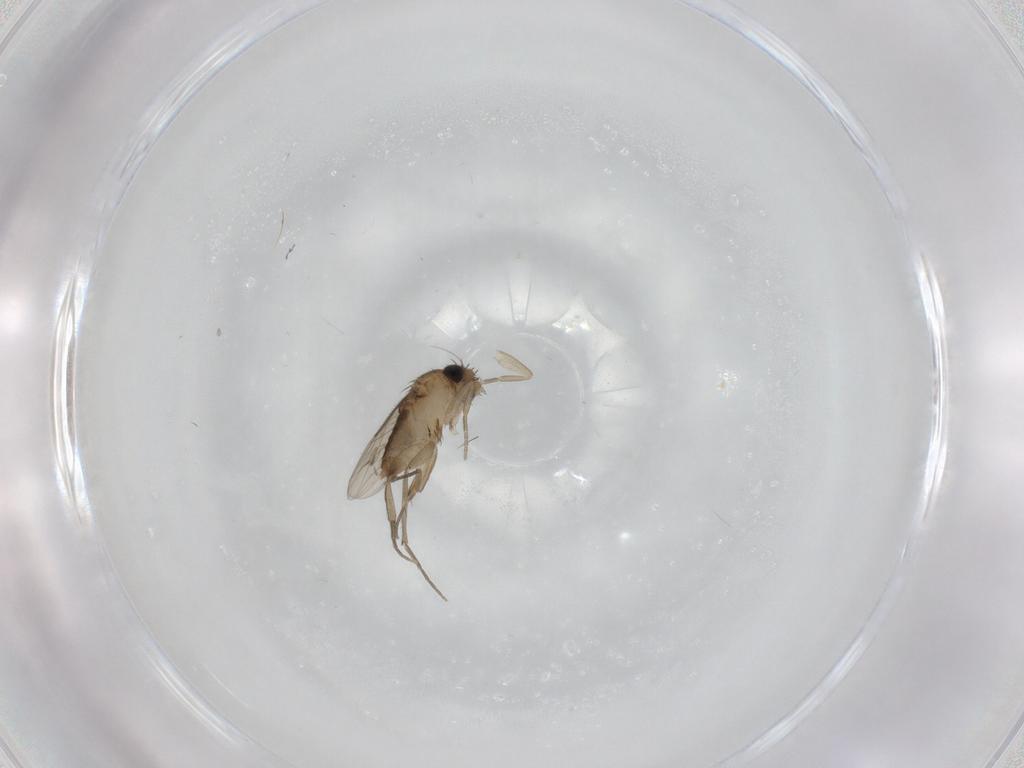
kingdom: Animalia
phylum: Arthropoda
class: Insecta
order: Diptera
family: Phoridae
